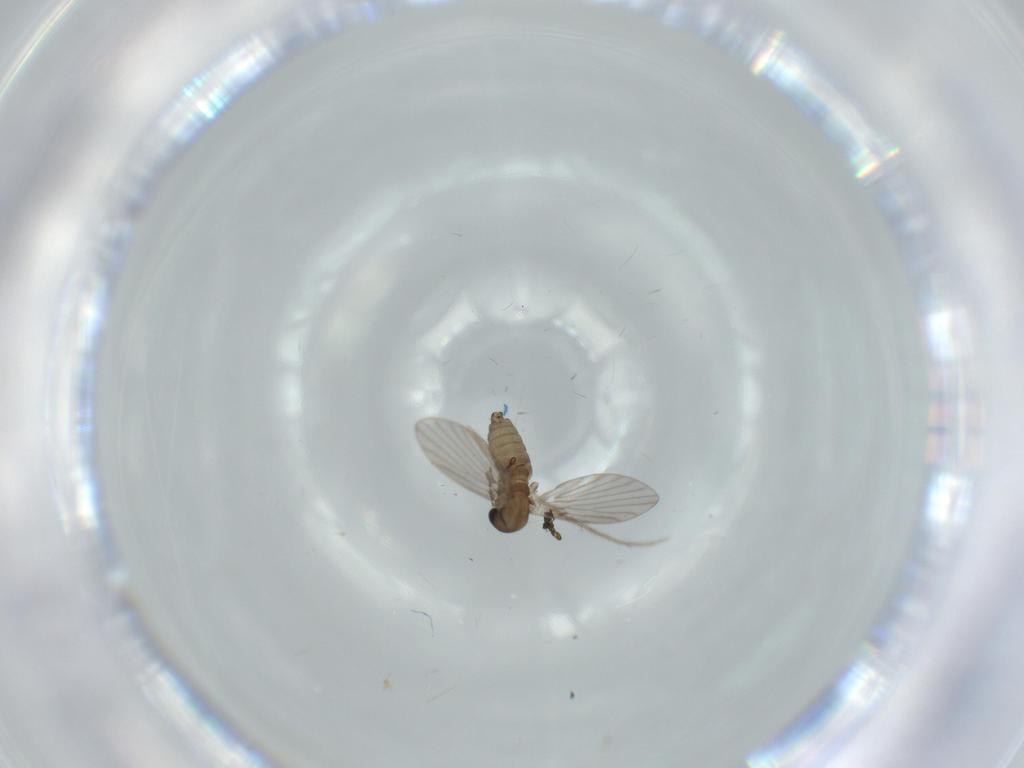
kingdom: Animalia
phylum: Arthropoda
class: Insecta
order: Diptera
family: Psychodidae
